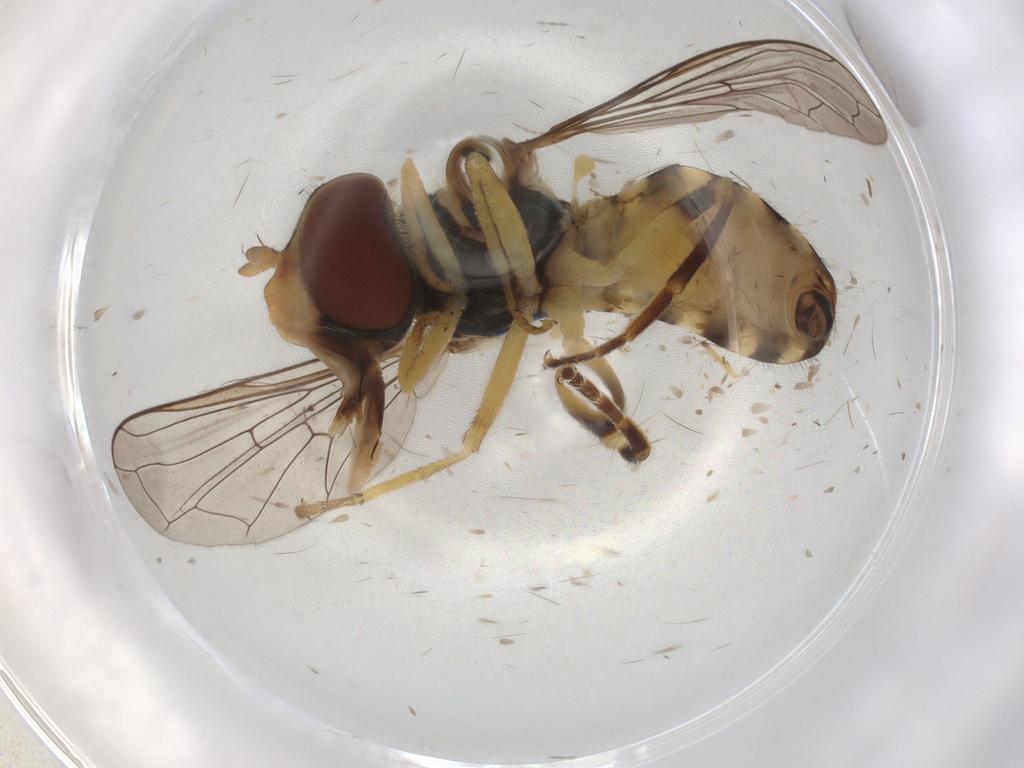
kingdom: Animalia
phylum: Arthropoda
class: Insecta
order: Diptera
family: Syrphidae
